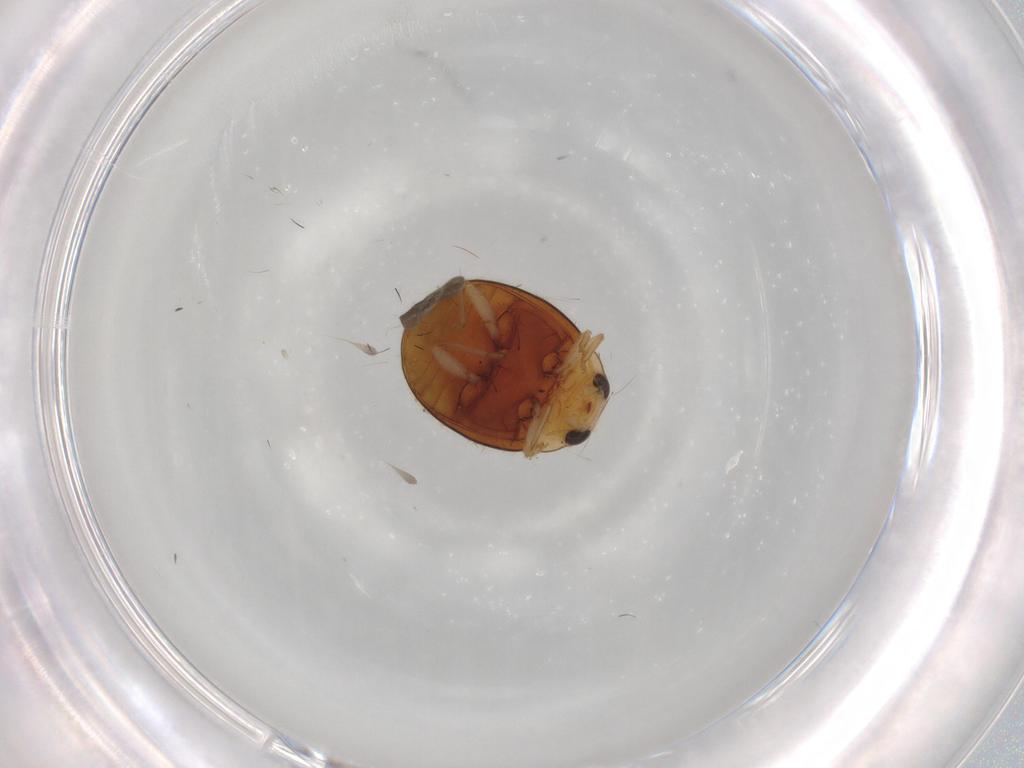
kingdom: Animalia
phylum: Arthropoda
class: Insecta
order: Coleoptera
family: Coccinellidae
